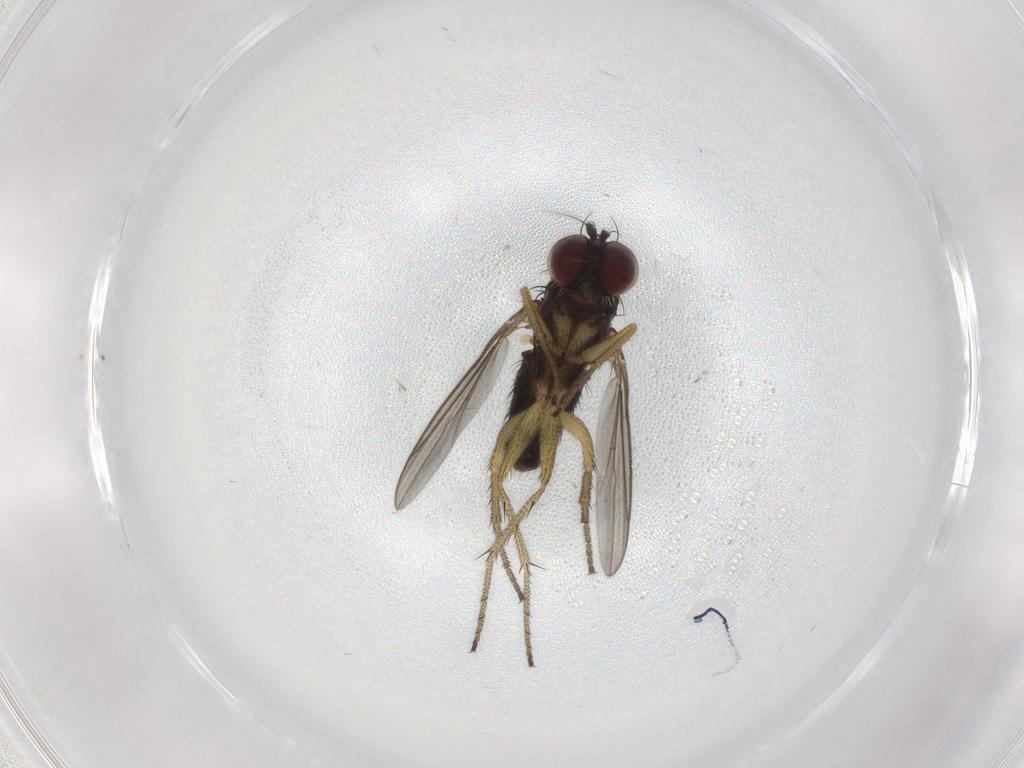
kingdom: Animalia
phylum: Arthropoda
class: Insecta
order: Diptera
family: Dolichopodidae
